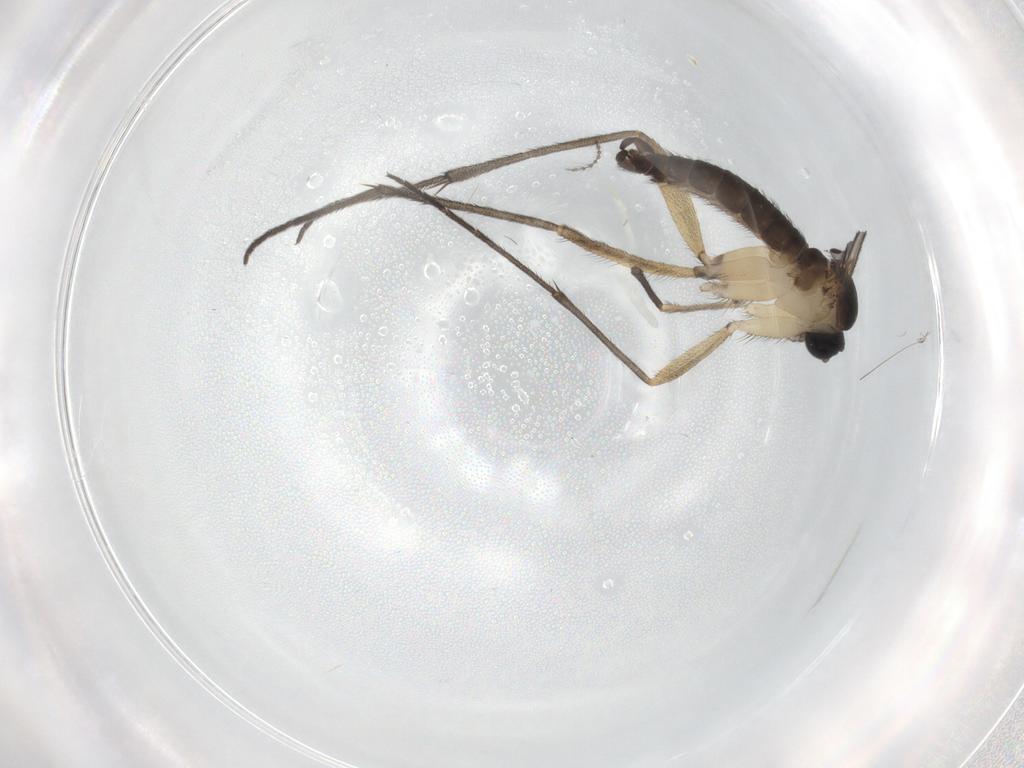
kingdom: Animalia
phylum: Arthropoda
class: Insecta
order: Diptera
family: Sciaridae
